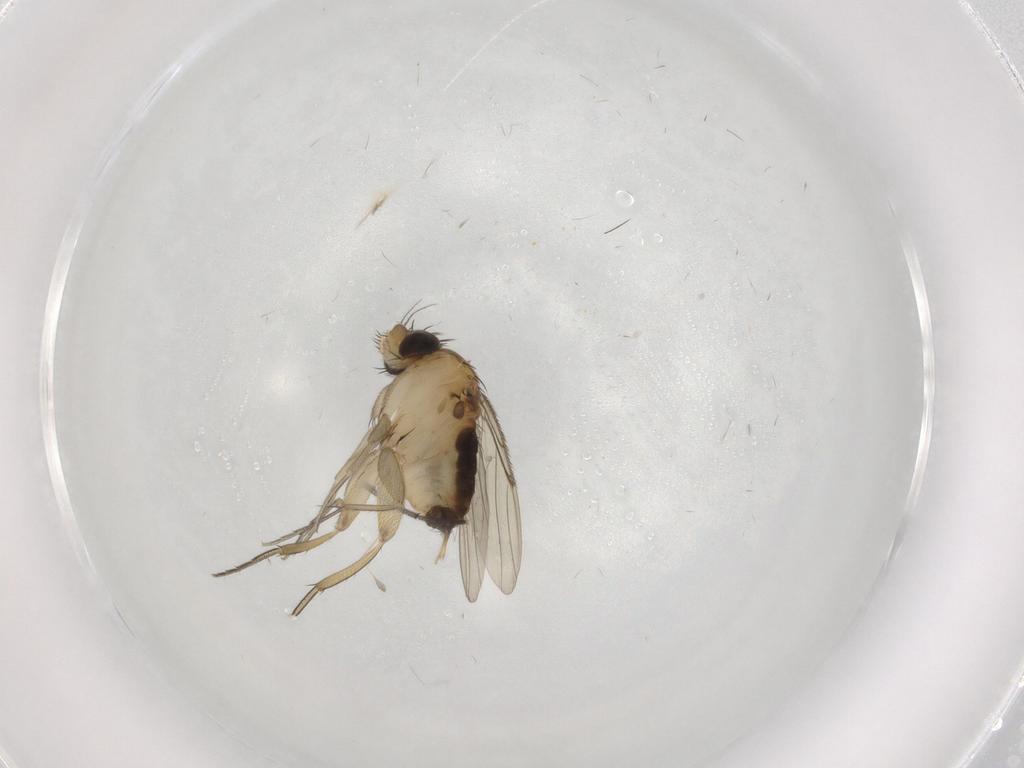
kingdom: Animalia
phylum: Arthropoda
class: Insecta
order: Diptera
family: Phoridae
